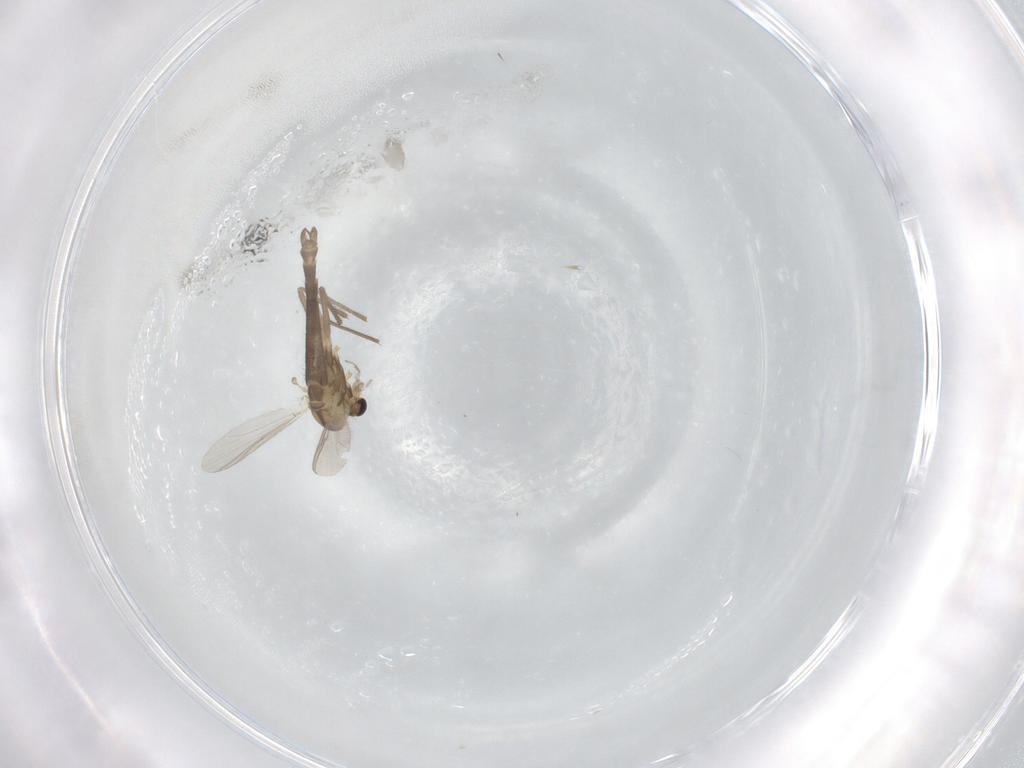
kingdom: Animalia
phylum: Arthropoda
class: Insecta
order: Diptera
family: Chironomidae
